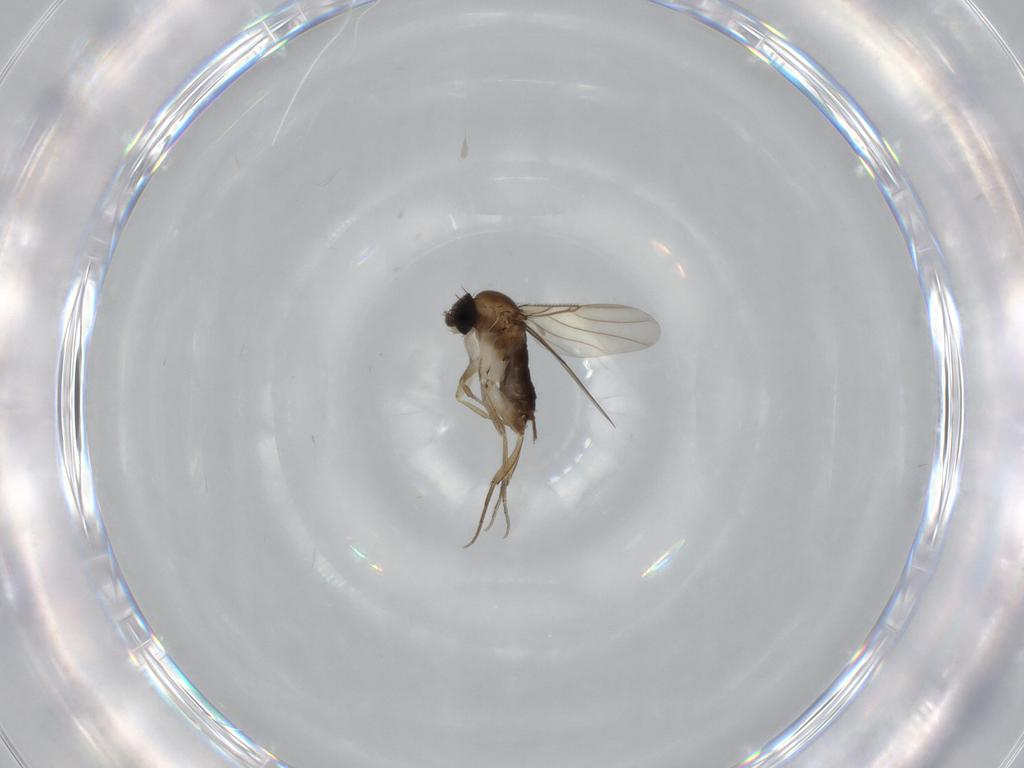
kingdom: Animalia
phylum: Arthropoda
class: Insecta
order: Diptera
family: Phoridae
